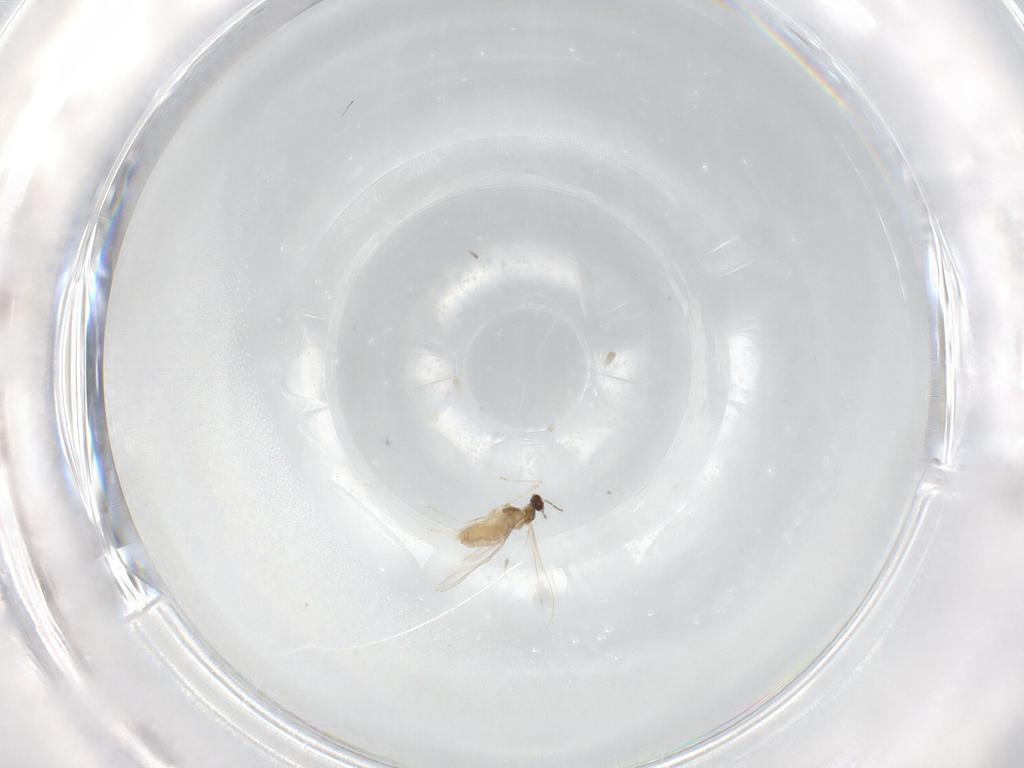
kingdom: Animalia
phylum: Arthropoda
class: Insecta
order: Diptera
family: Cecidomyiidae
